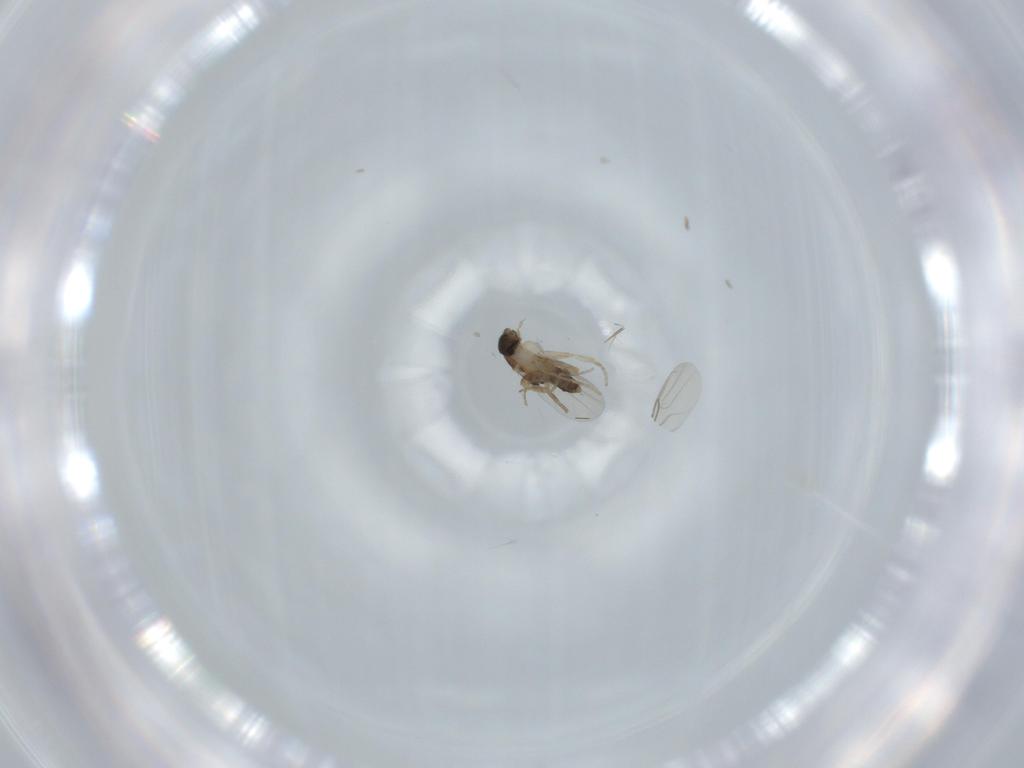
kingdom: Animalia
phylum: Arthropoda
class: Insecta
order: Diptera
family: Phoridae
